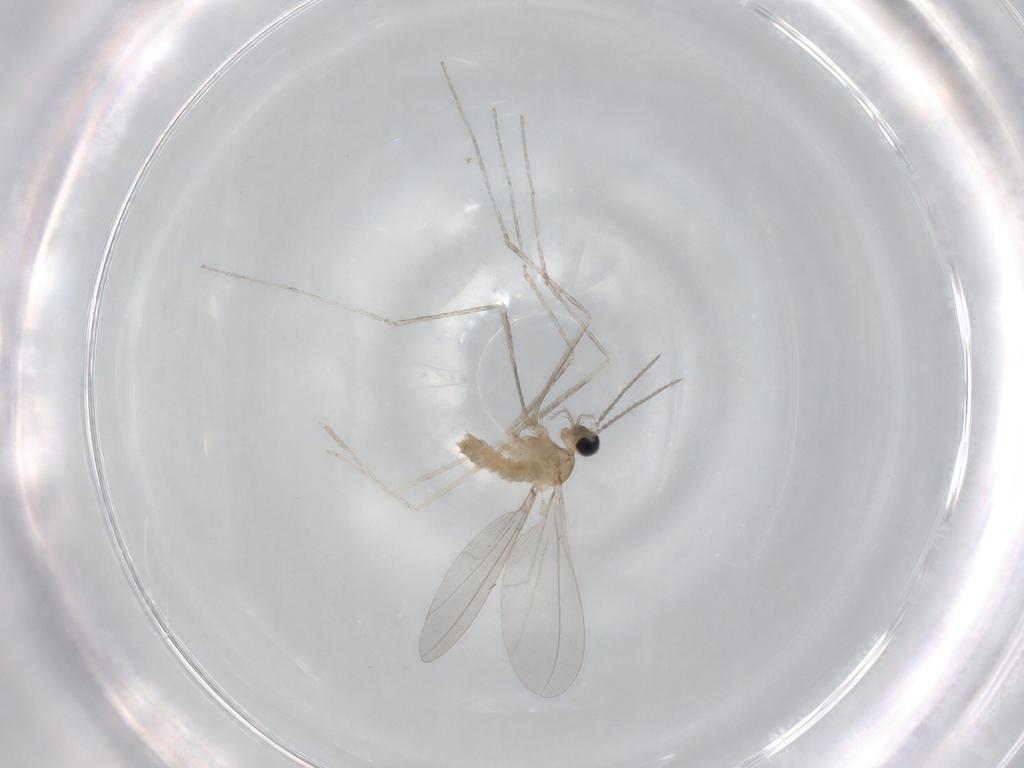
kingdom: Animalia
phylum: Arthropoda
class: Insecta
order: Diptera
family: Cecidomyiidae
